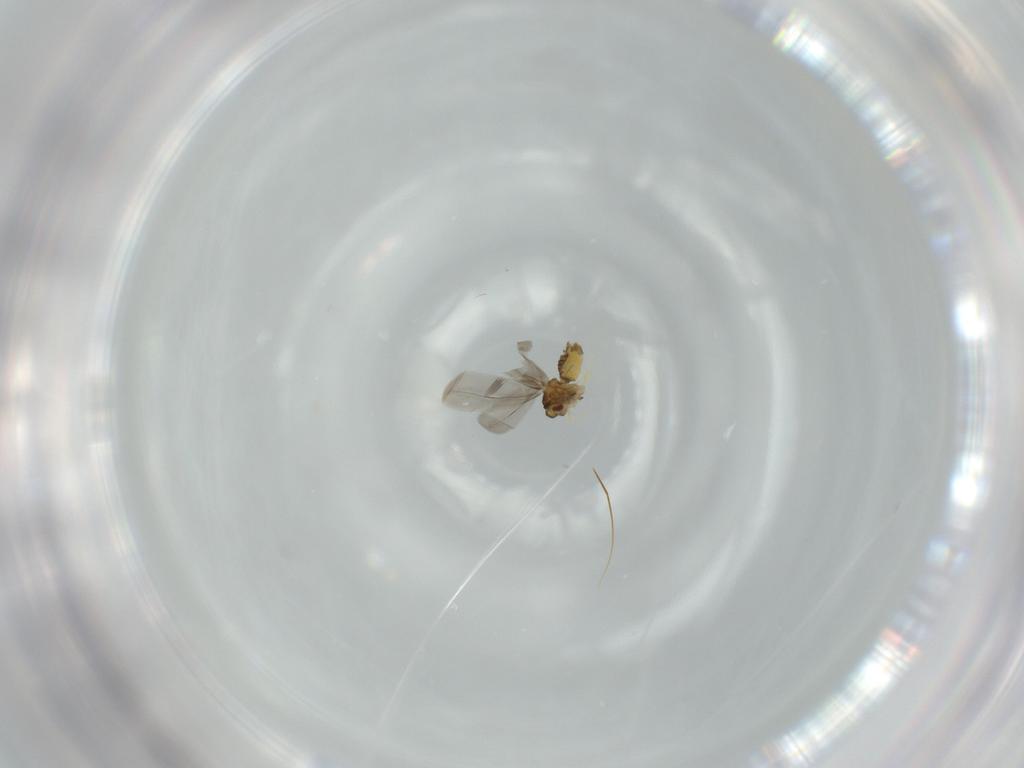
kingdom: Animalia
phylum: Arthropoda
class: Insecta
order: Hemiptera
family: Aleyrodidae
